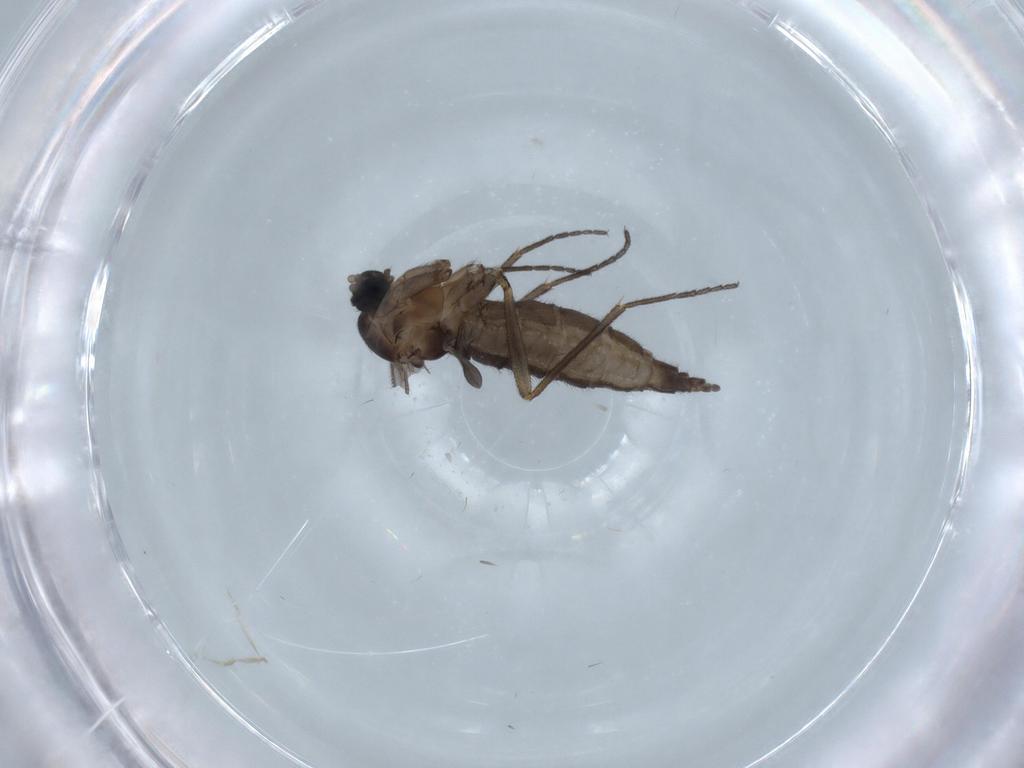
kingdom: Animalia
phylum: Arthropoda
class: Insecta
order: Diptera
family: Sciaridae
